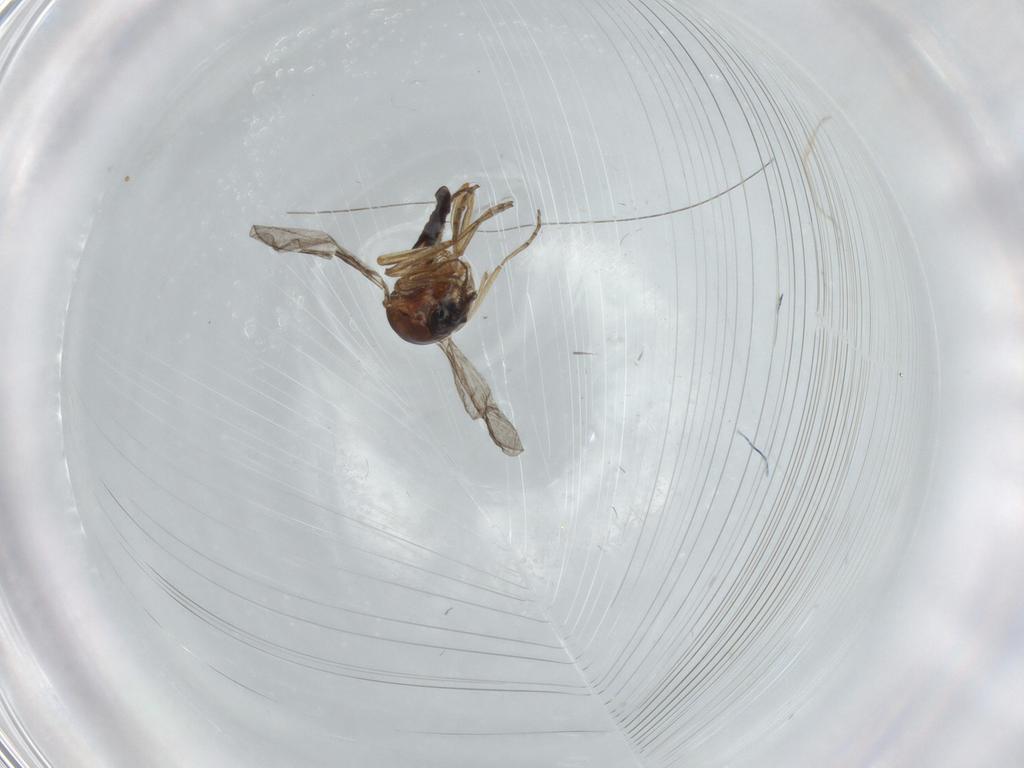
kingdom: Animalia
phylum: Arthropoda
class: Insecta
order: Diptera
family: Ceratopogonidae
